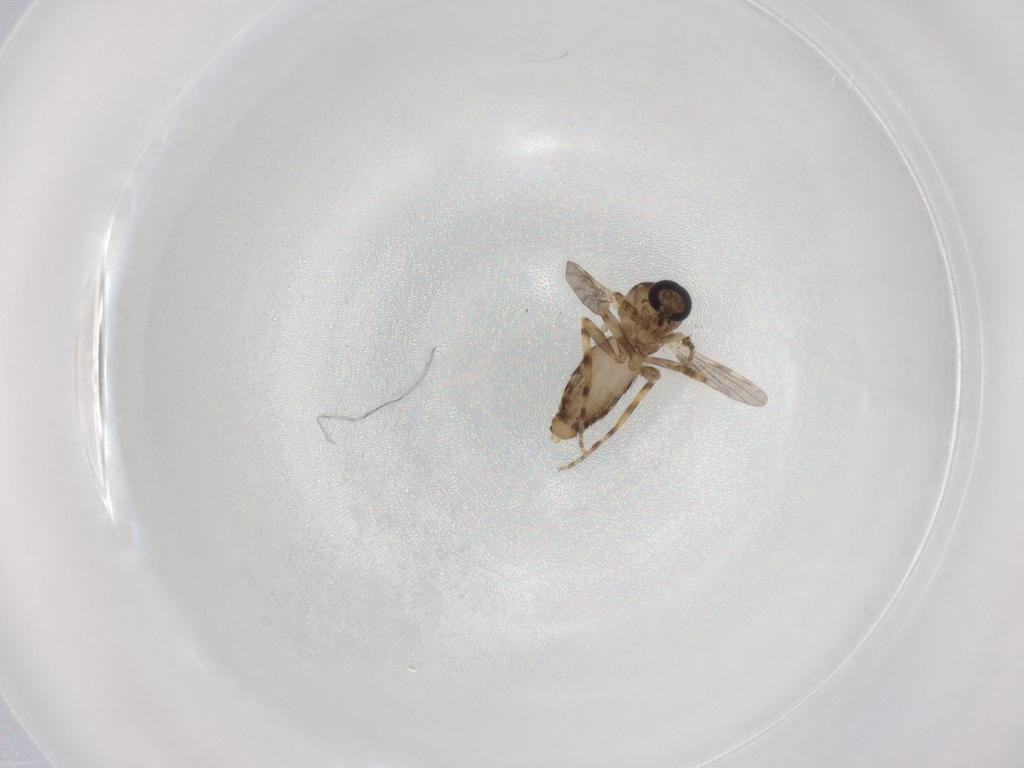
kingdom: Animalia
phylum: Arthropoda
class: Insecta
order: Diptera
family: Ceratopogonidae
